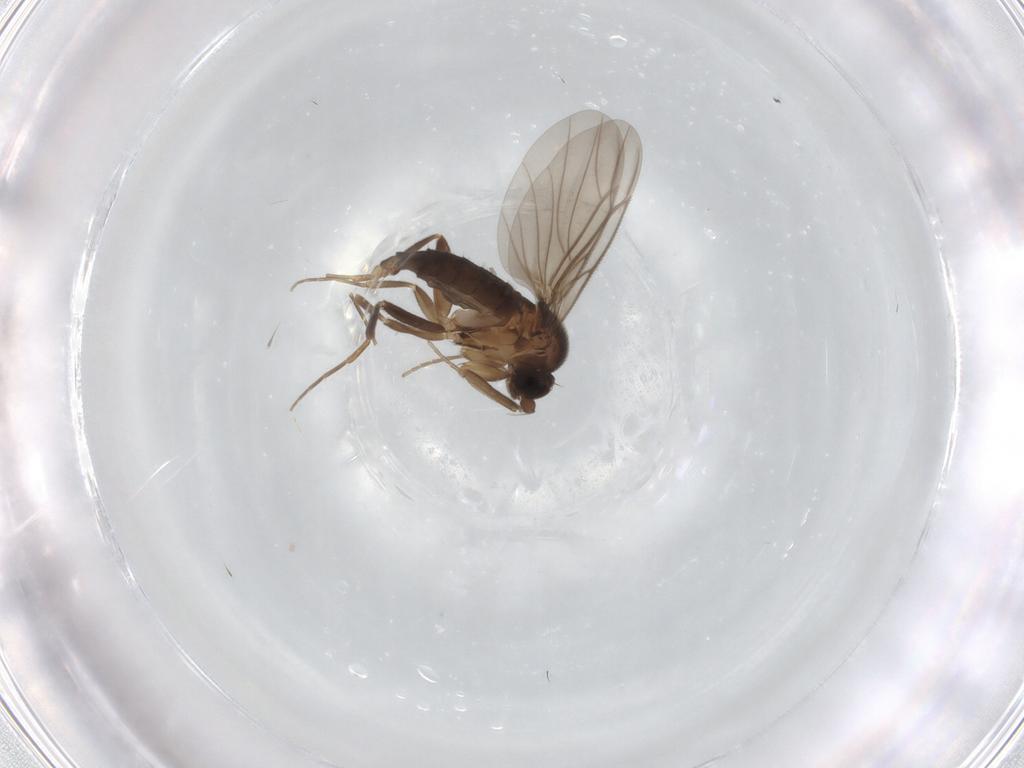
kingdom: Animalia
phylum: Arthropoda
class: Insecta
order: Diptera
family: Phoridae
